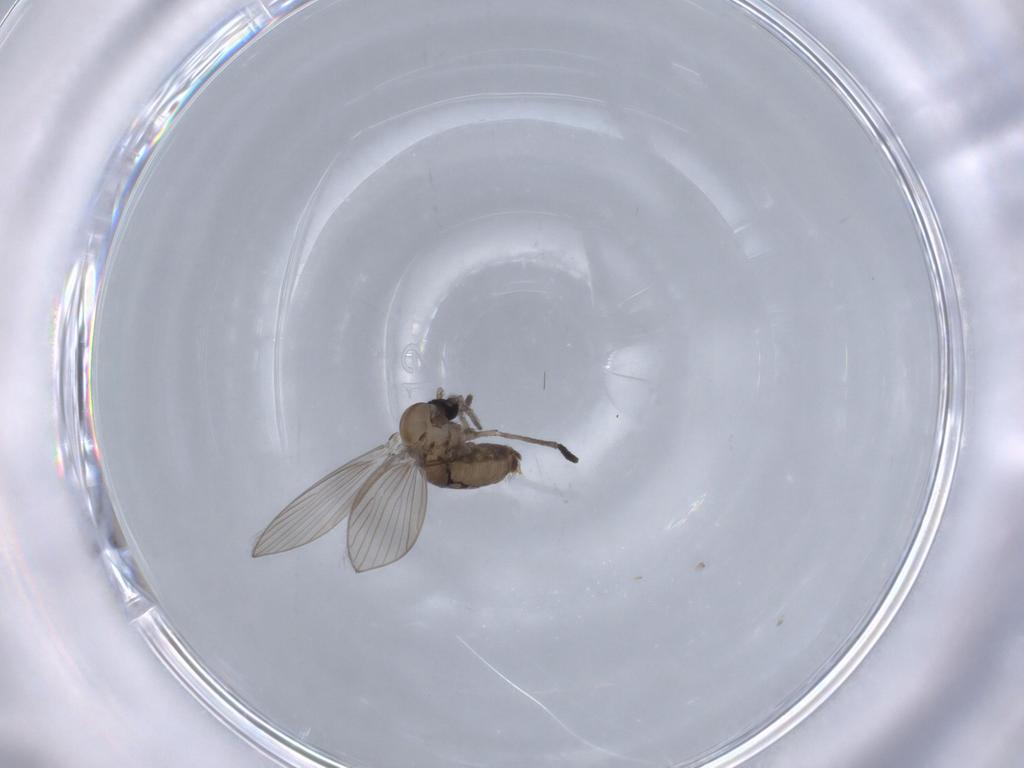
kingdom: Animalia
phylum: Arthropoda
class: Insecta
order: Diptera
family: Psychodidae
